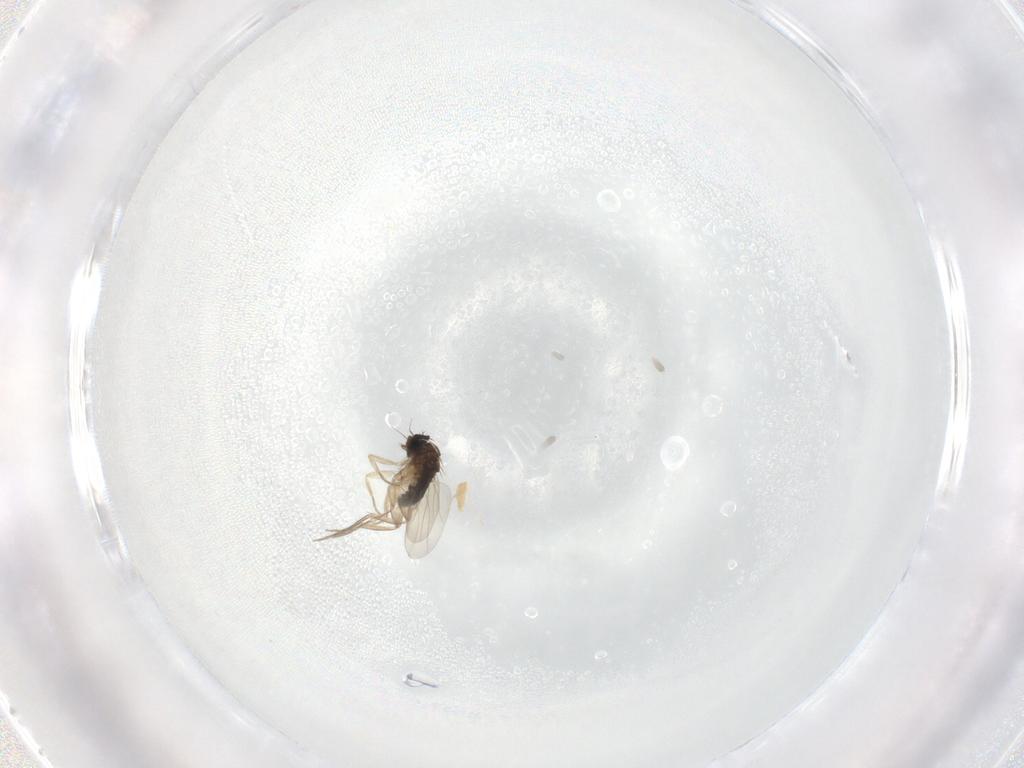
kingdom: Animalia
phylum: Arthropoda
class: Insecta
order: Diptera
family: Phoridae
